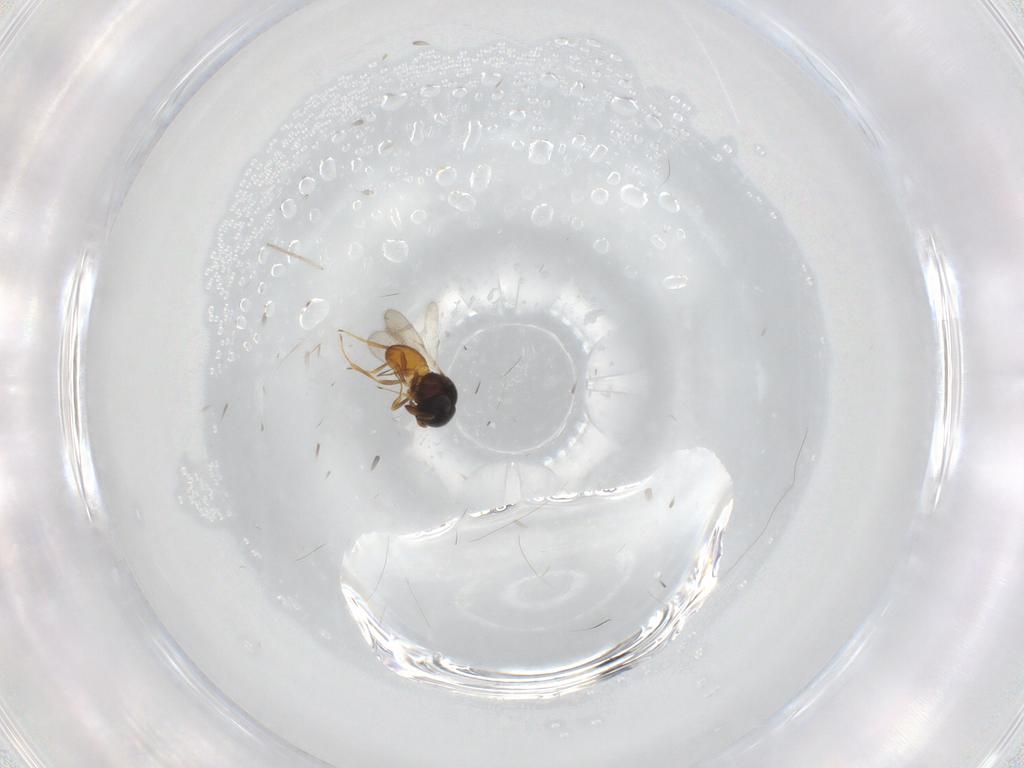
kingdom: Animalia
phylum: Arthropoda
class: Insecta
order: Hymenoptera
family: Scelionidae
